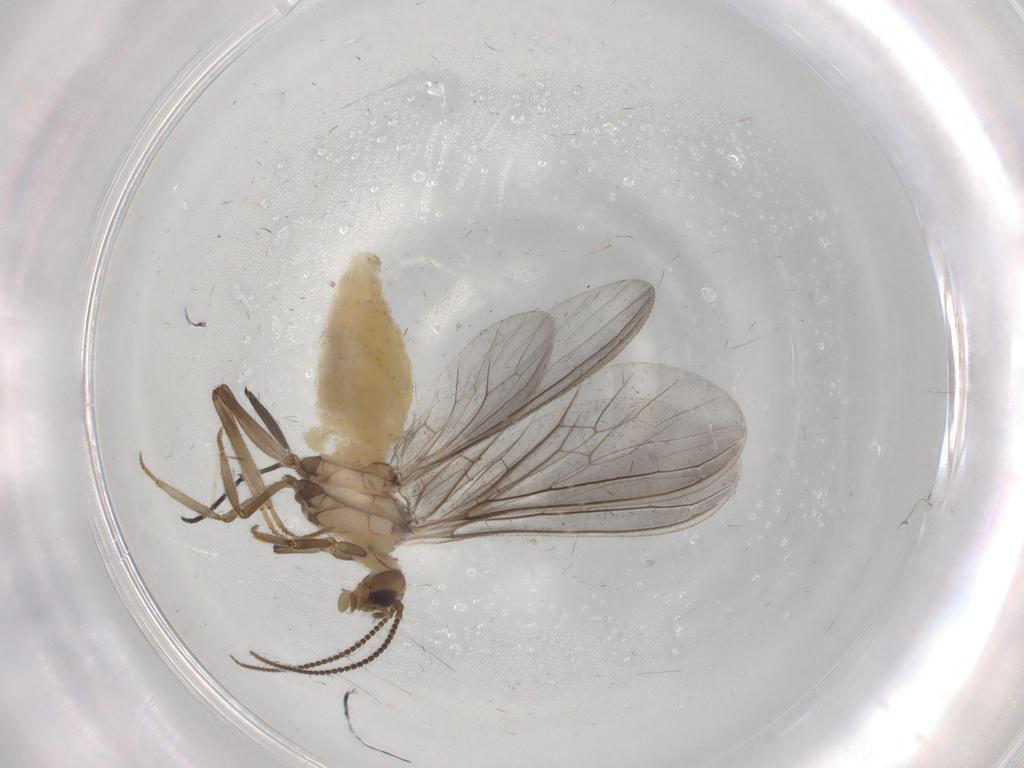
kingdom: Animalia
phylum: Arthropoda
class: Insecta
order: Neuroptera
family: Coniopterygidae
